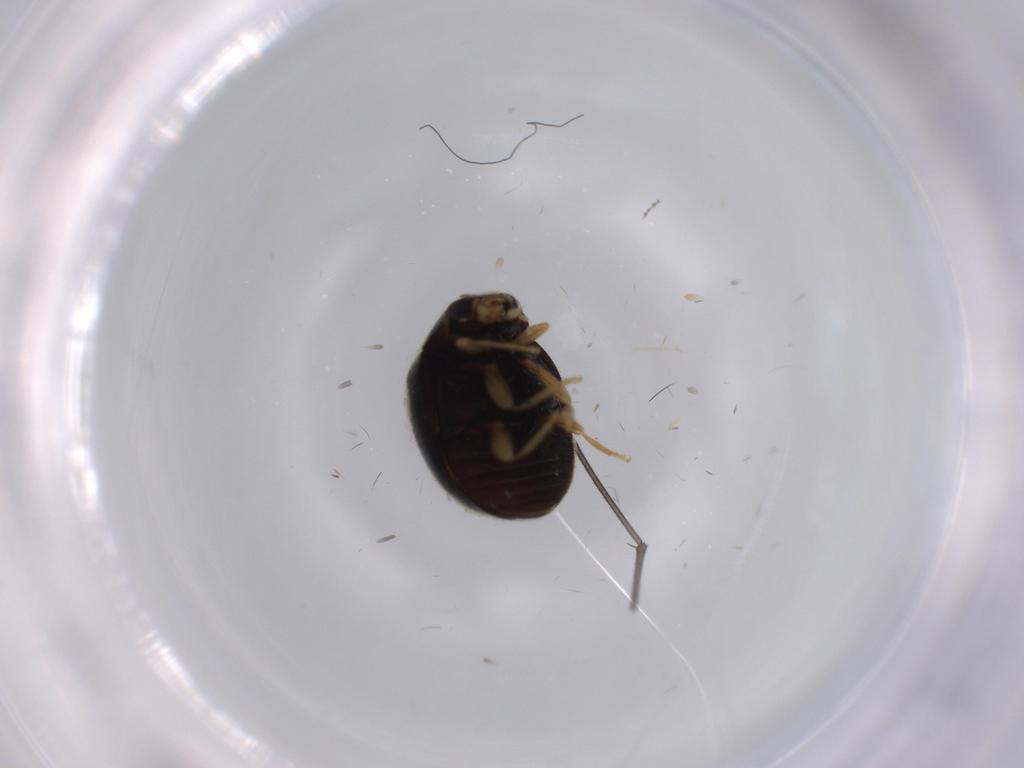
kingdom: Animalia
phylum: Arthropoda
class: Insecta
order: Coleoptera
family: Coccinellidae
